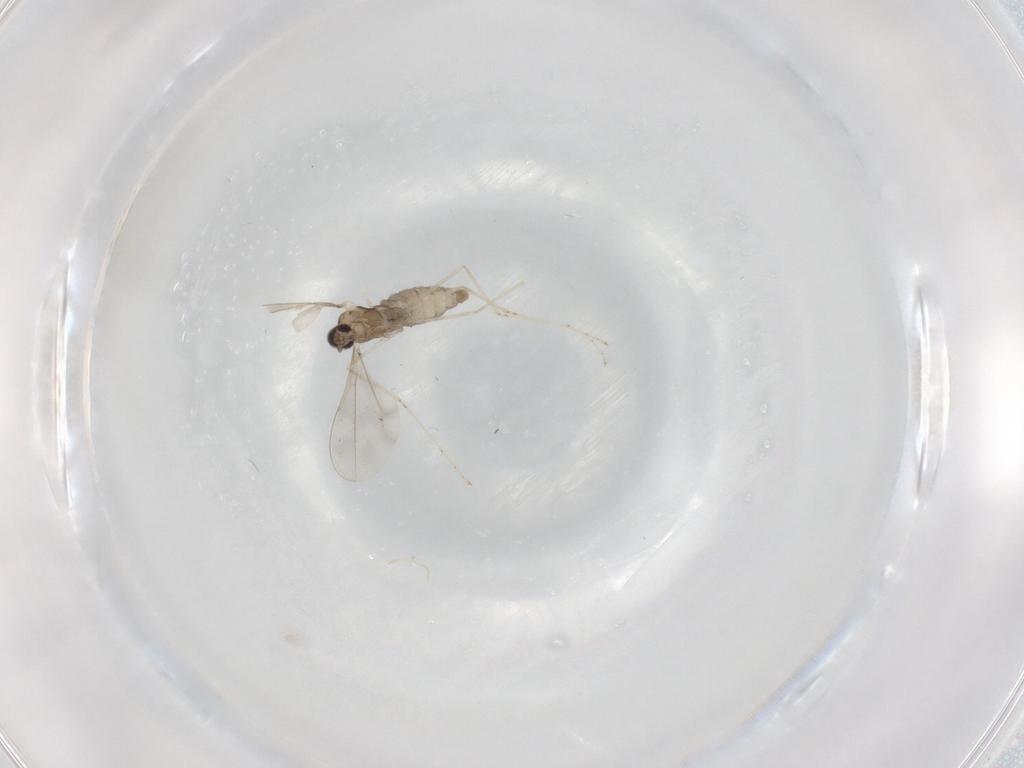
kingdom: Animalia
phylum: Arthropoda
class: Insecta
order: Diptera
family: Cecidomyiidae
